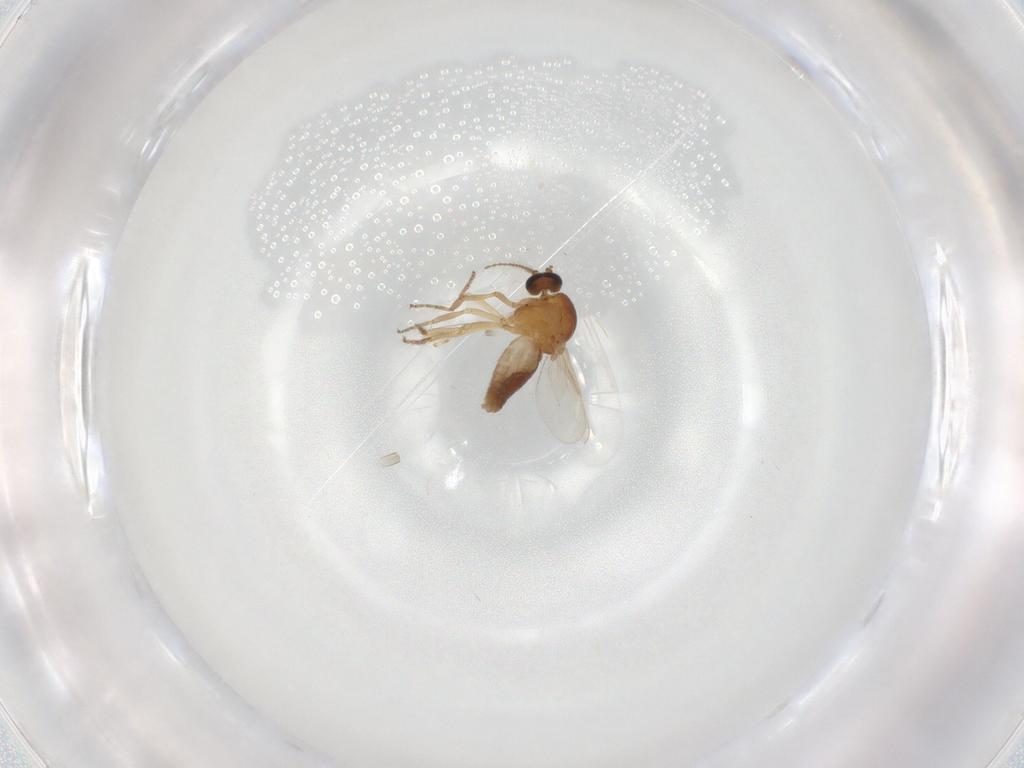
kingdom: Animalia
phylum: Arthropoda
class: Insecta
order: Diptera
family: Ceratopogonidae
